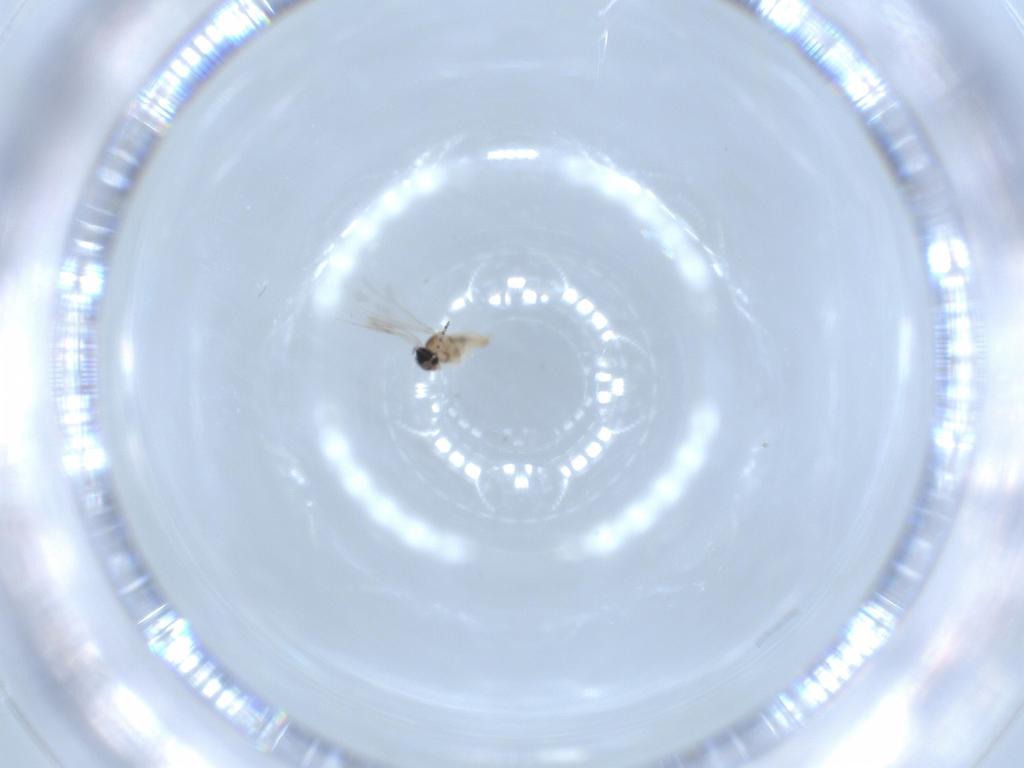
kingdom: Animalia
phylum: Arthropoda
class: Insecta
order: Diptera
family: Cecidomyiidae
